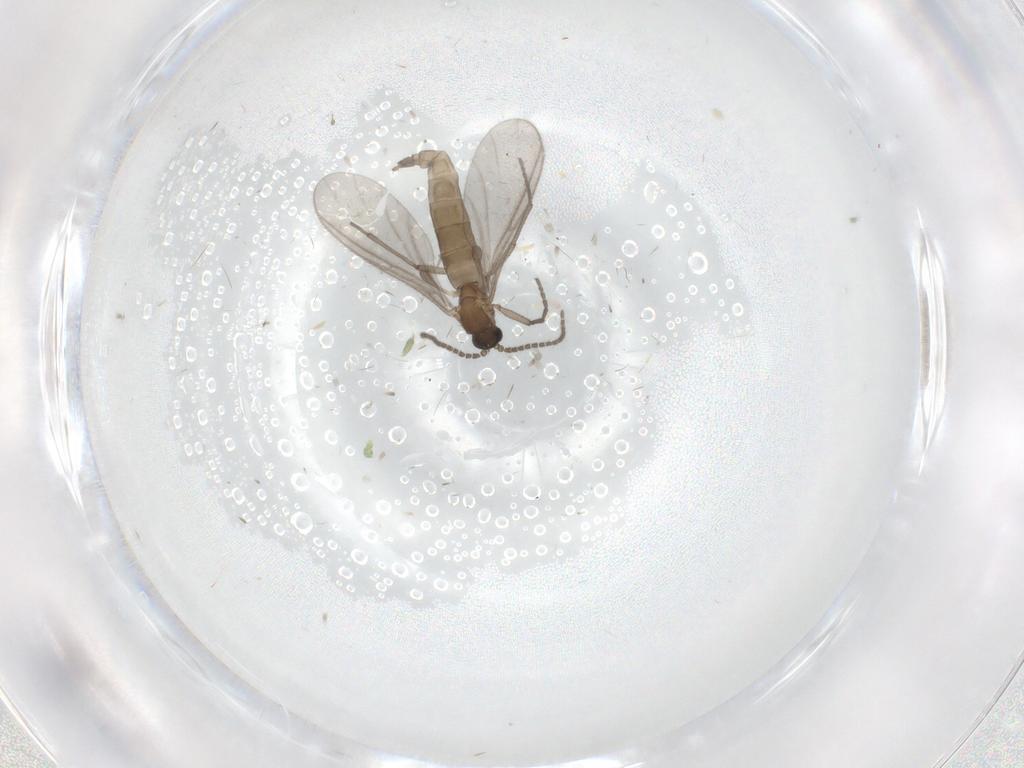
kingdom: Animalia
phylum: Arthropoda
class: Insecta
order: Diptera
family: Sciaridae
